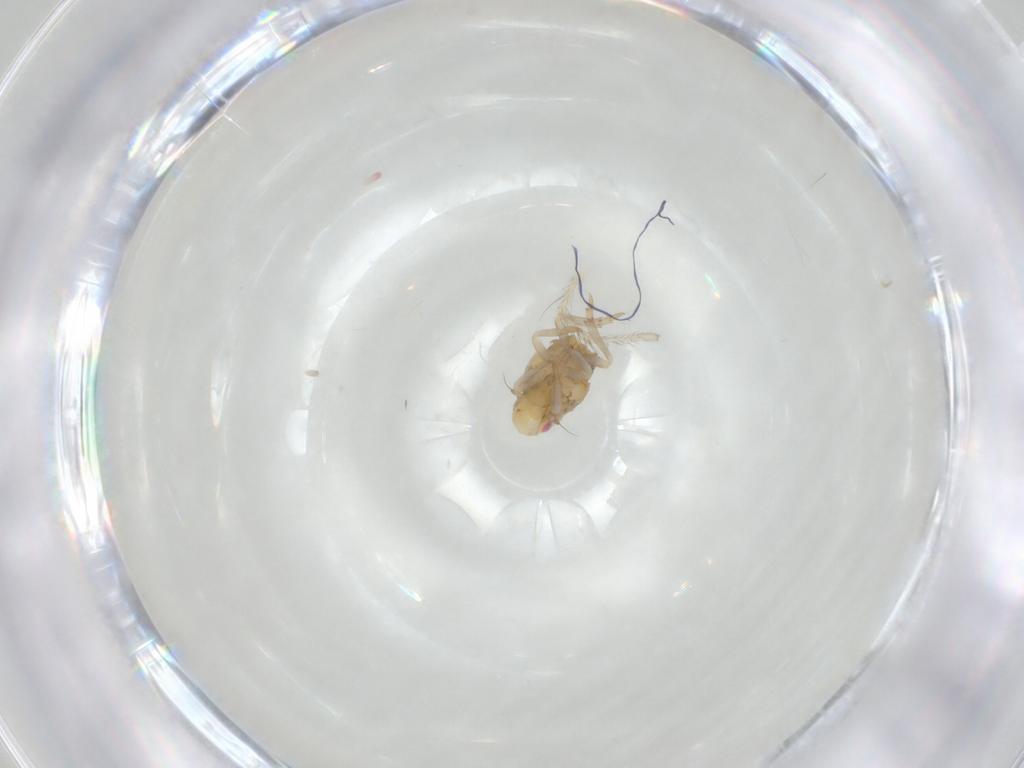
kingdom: Animalia
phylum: Arthropoda
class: Insecta
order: Hemiptera
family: Flatidae
